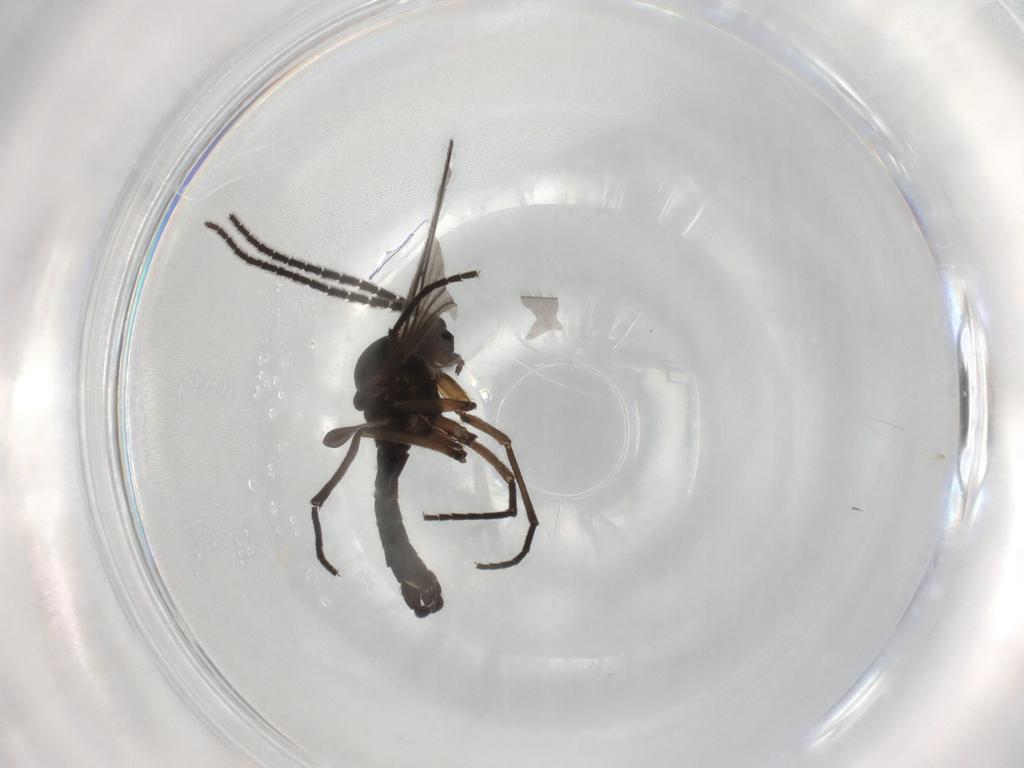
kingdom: Animalia
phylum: Arthropoda
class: Insecta
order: Diptera
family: Sciaridae
